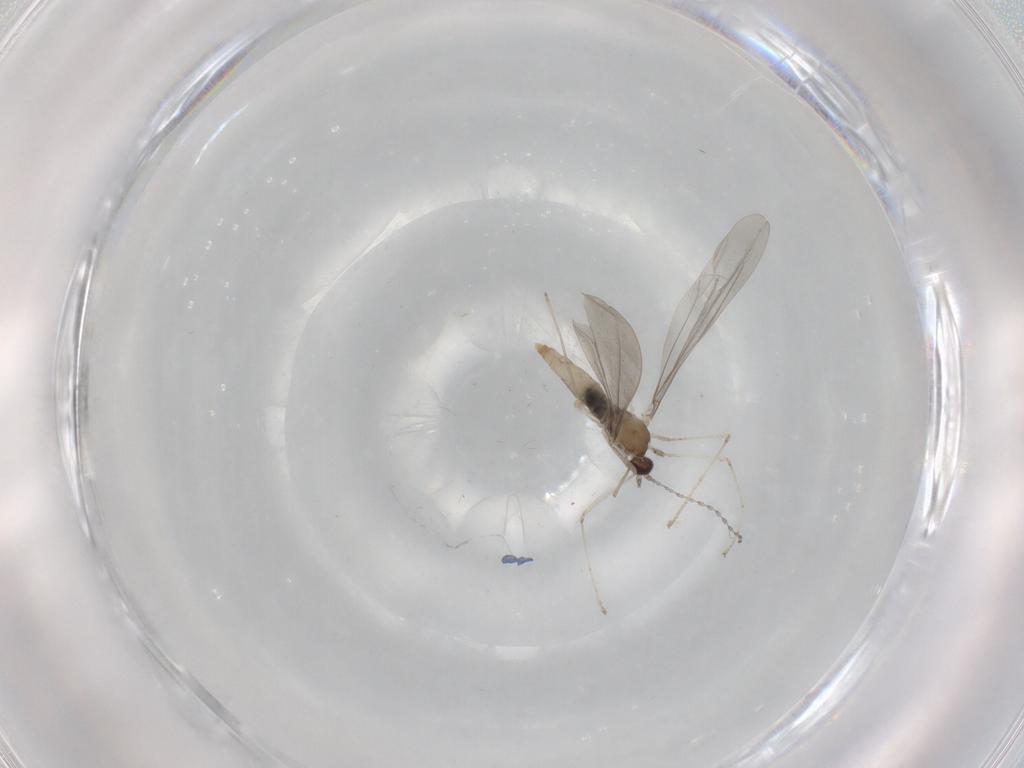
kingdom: Animalia
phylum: Arthropoda
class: Insecta
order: Diptera
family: Cecidomyiidae
